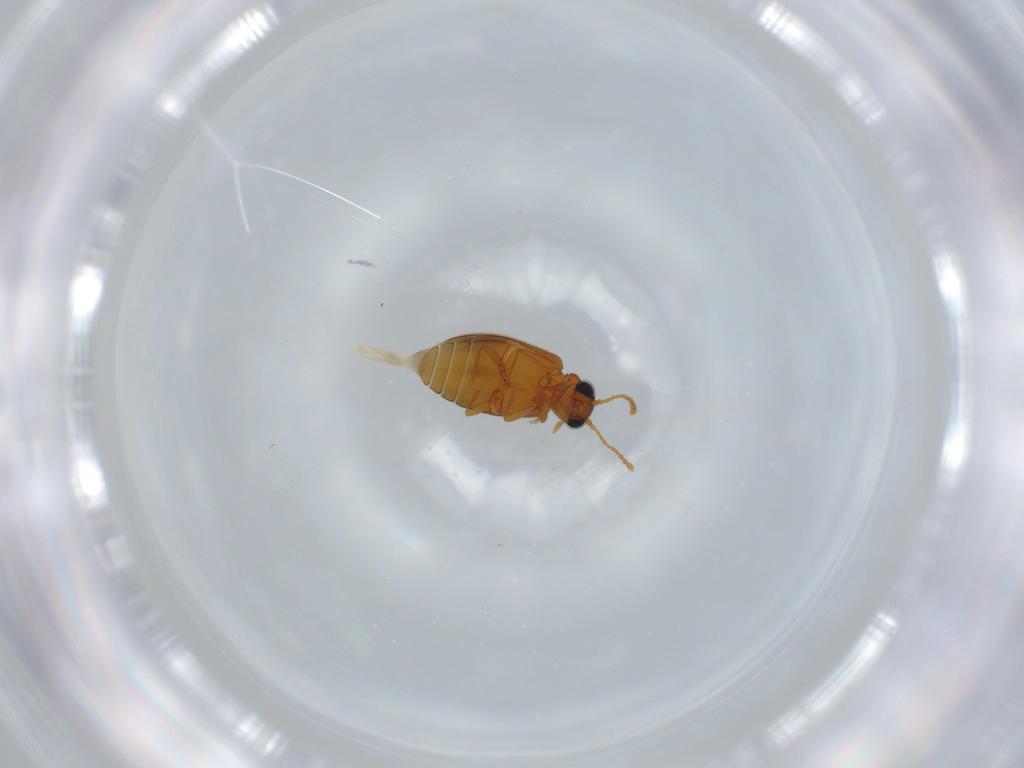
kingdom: Animalia
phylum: Arthropoda
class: Insecta
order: Coleoptera
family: Aderidae
